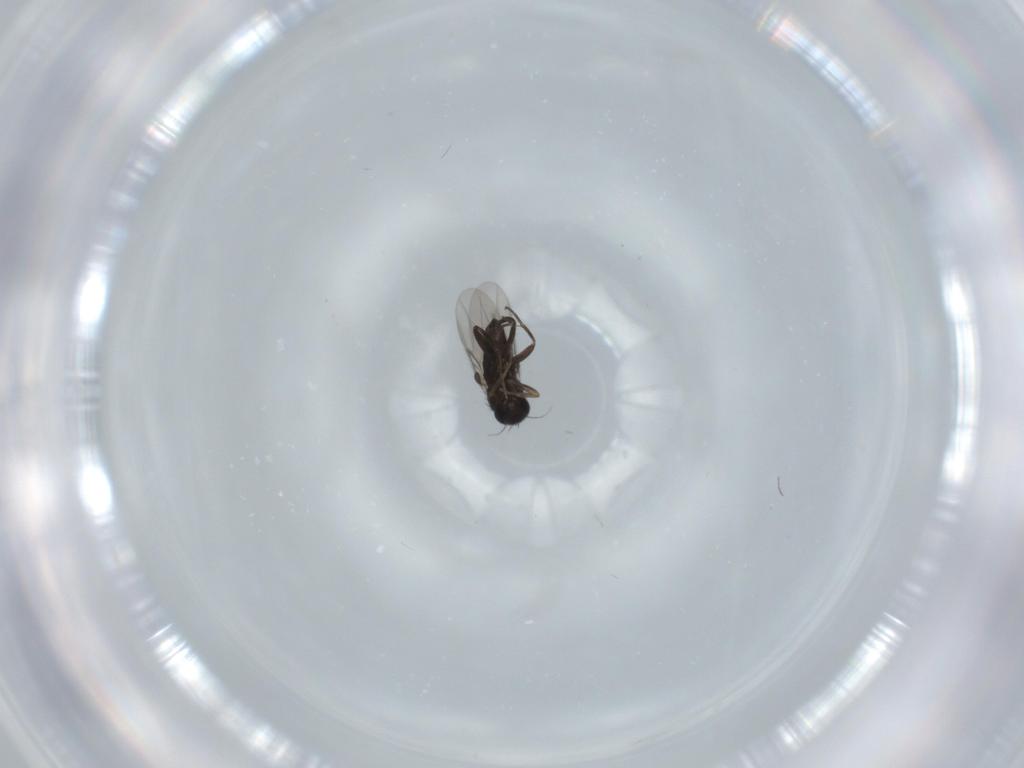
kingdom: Animalia
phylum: Arthropoda
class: Insecta
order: Diptera
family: Phoridae
